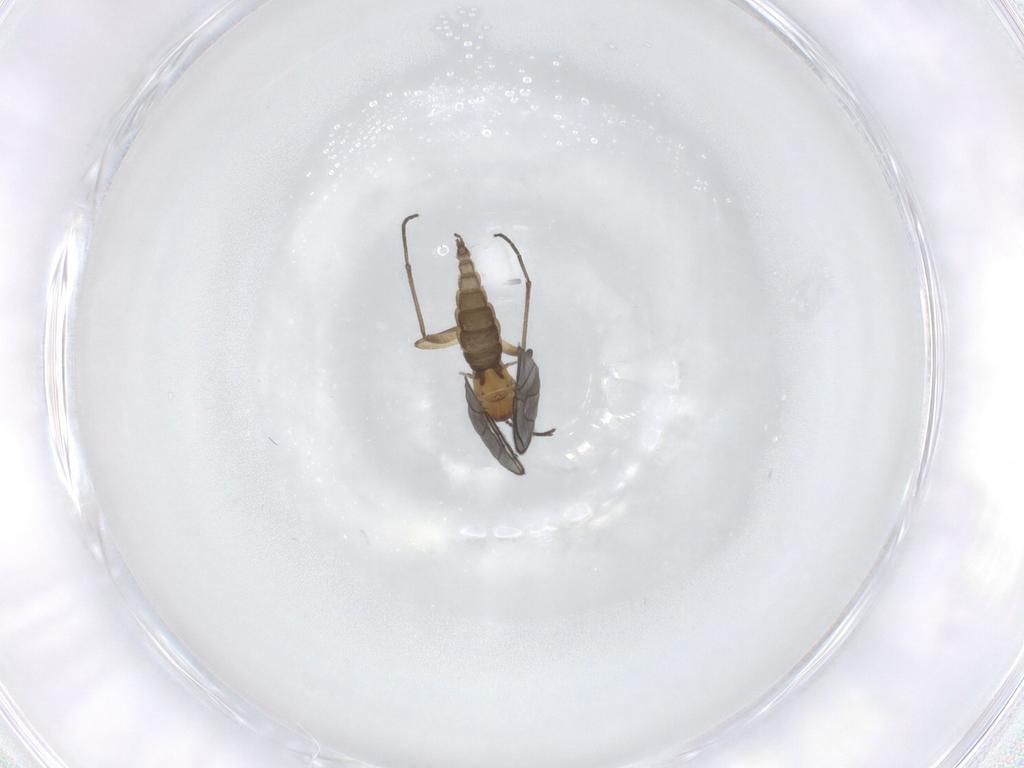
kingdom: Animalia
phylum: Arthropoda
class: Insecta
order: Diptera
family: Sciaridae
